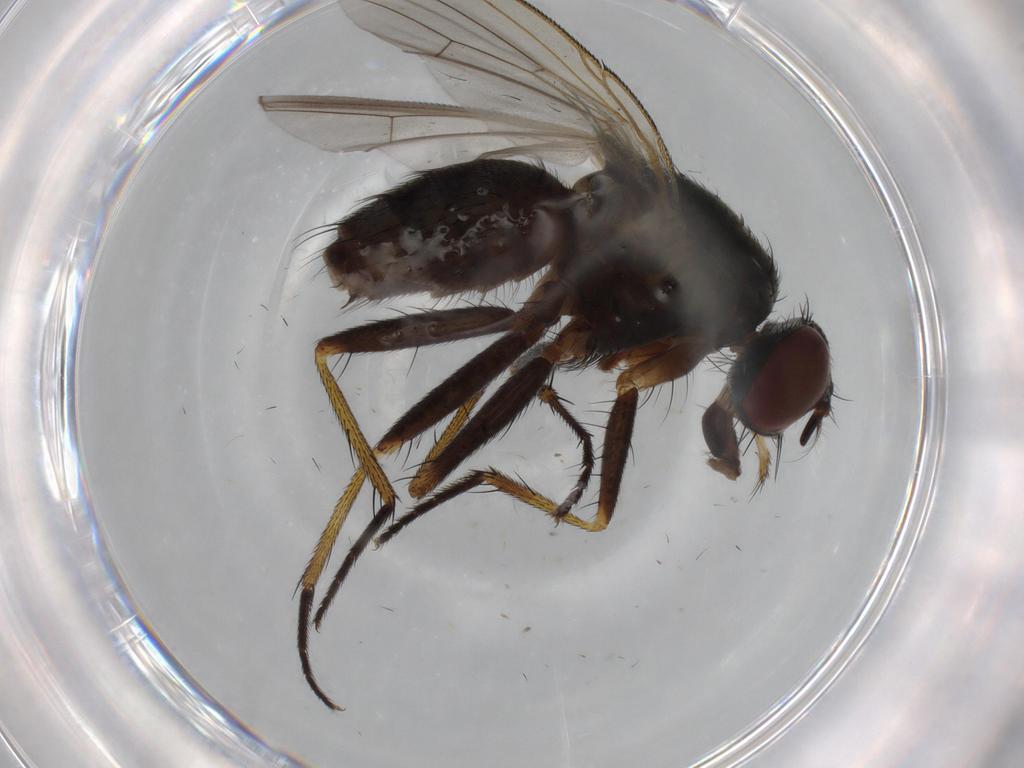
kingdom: Animalia
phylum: Arthropoda
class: Insecta
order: Diptera
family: Muscidae
